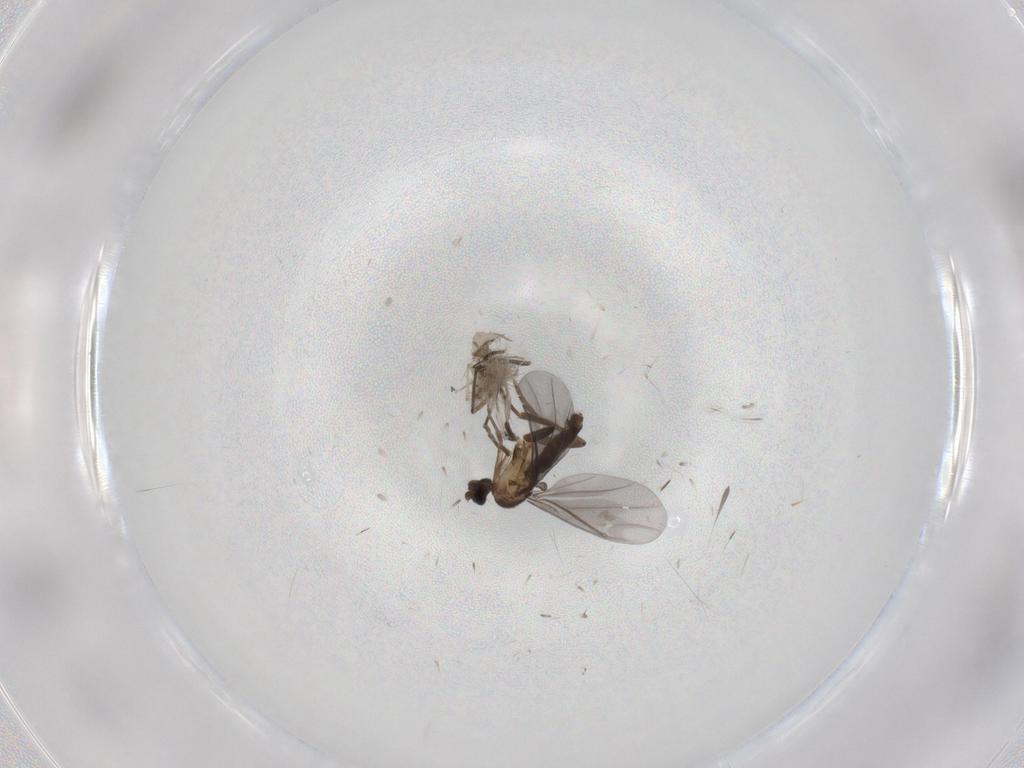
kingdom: Animalia
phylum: Arthropoda
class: Insecta
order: Diptera
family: Phoridae
